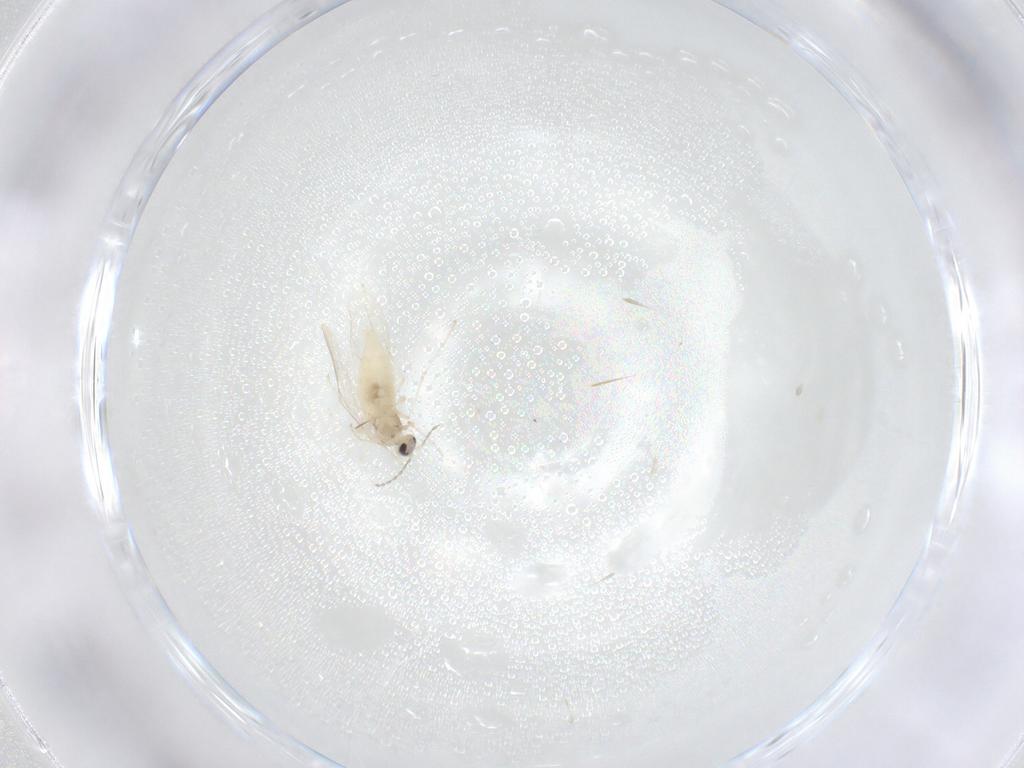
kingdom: Animalia
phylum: Arthropoda
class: Insecta
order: Diptera
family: Cecidomyiidae
